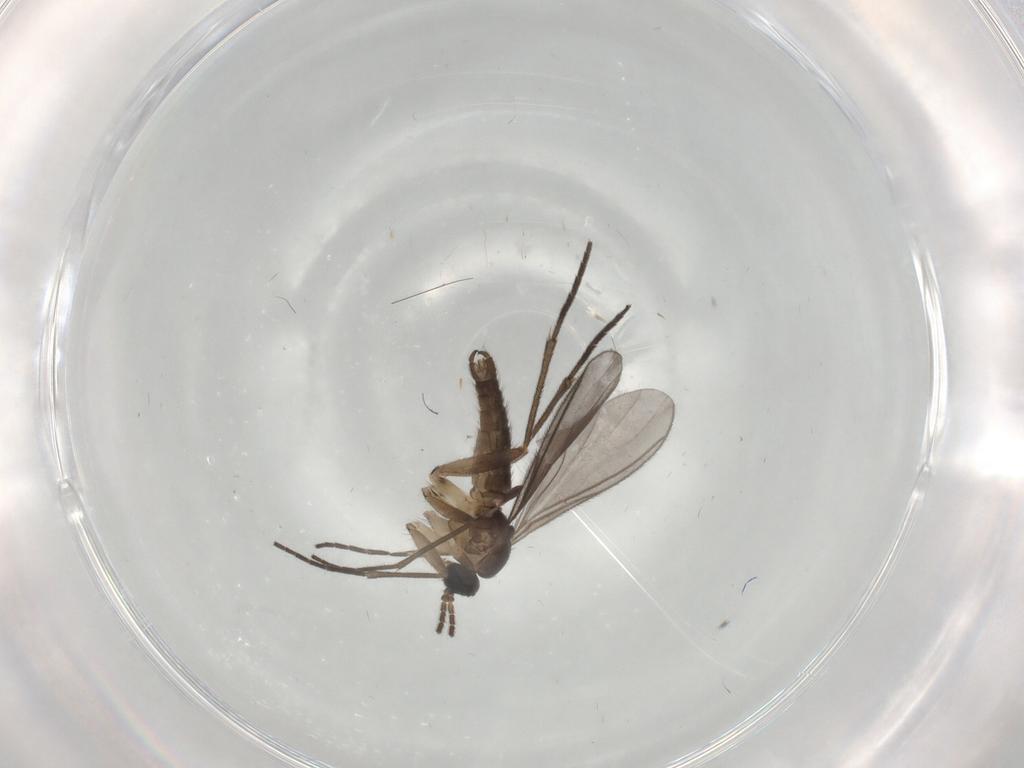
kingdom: Animalia
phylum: Arthropoda
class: Insecta
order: Diptera
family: Sciaridae
